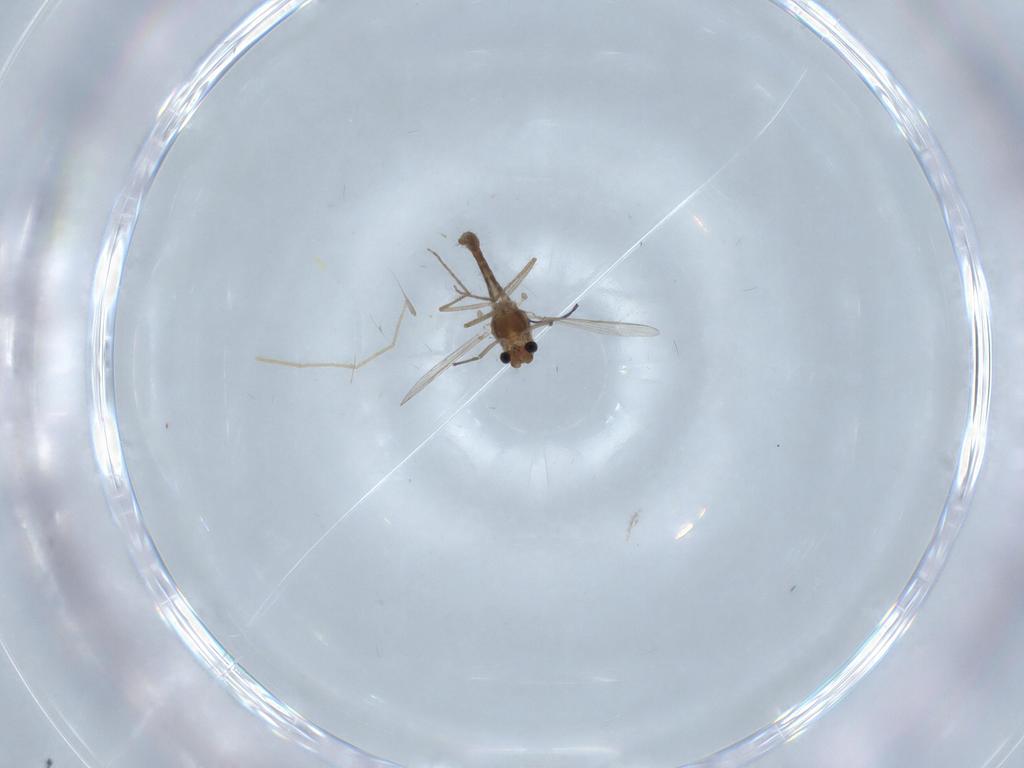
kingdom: Animalia
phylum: Arthropoda
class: Insecta
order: Diptera
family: Chironomidae
